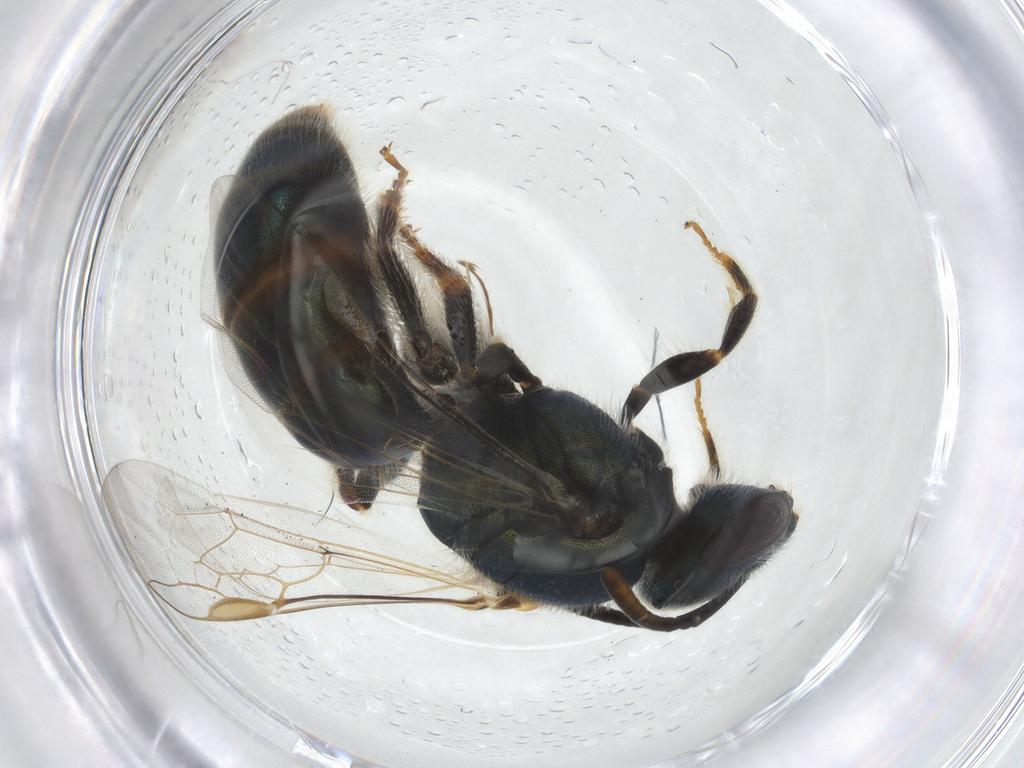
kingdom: Animalia
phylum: Arthropoda
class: Insecta
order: Hymenoptera
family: Halictidae
